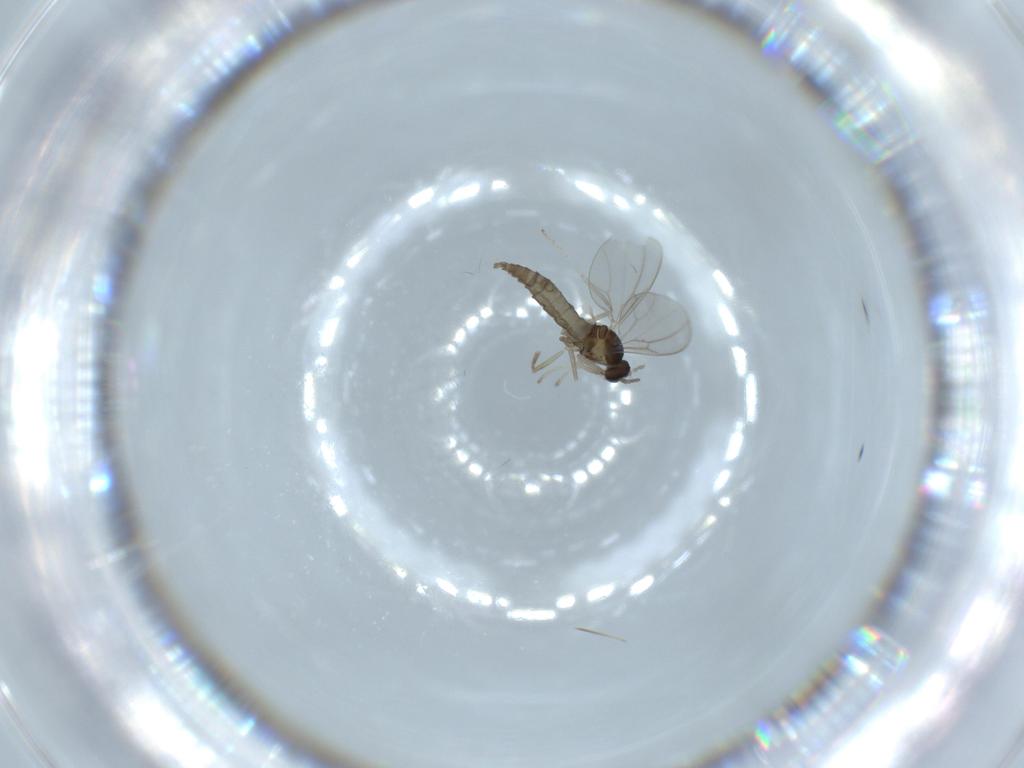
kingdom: Animalia
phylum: Arthropoda
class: Insecta
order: Diptera
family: Cecidomyiidae
